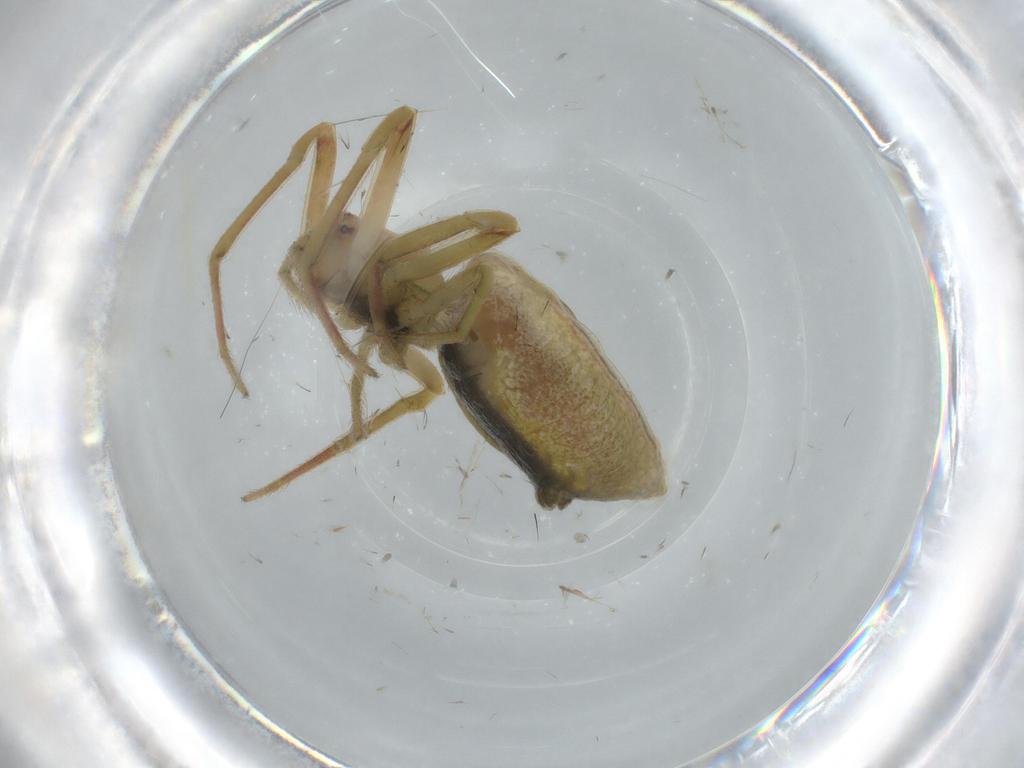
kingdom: Animalia
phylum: Arthropoda
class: Arachnida
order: Araneae
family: Araneidae
